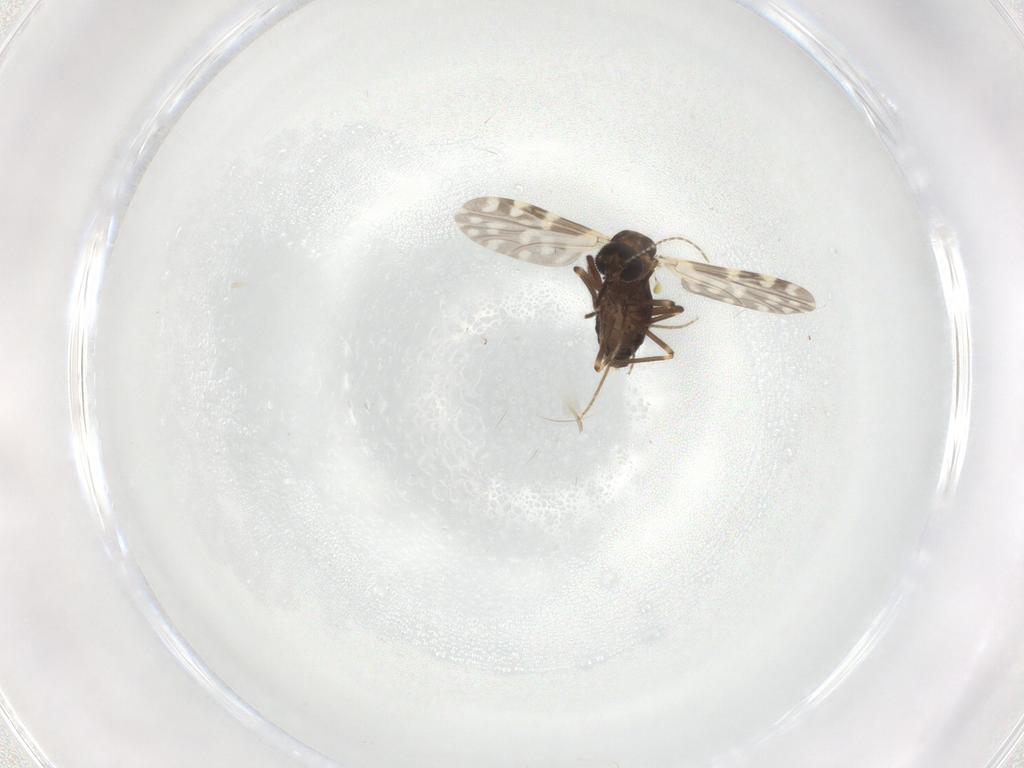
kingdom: Animalia
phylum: Arthropoda
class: Insecta
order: Diptera
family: Ceratopogonidae
